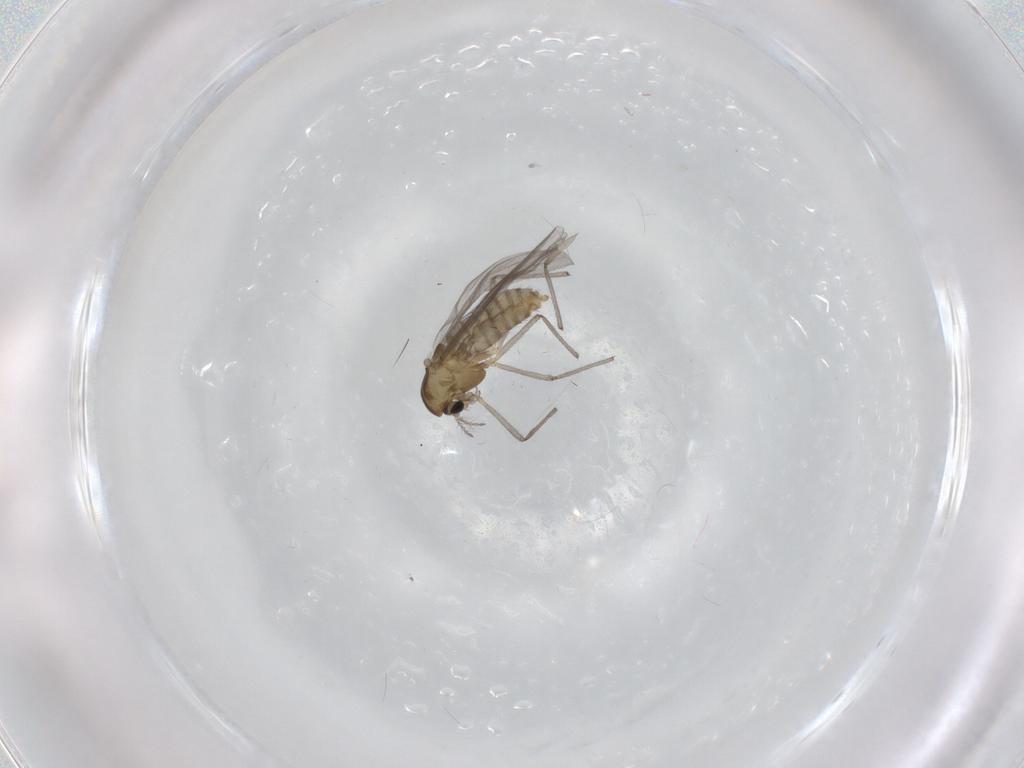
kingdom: Animalia
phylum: Arthropoda
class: Insecta
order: Diptera
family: Chironomidae
